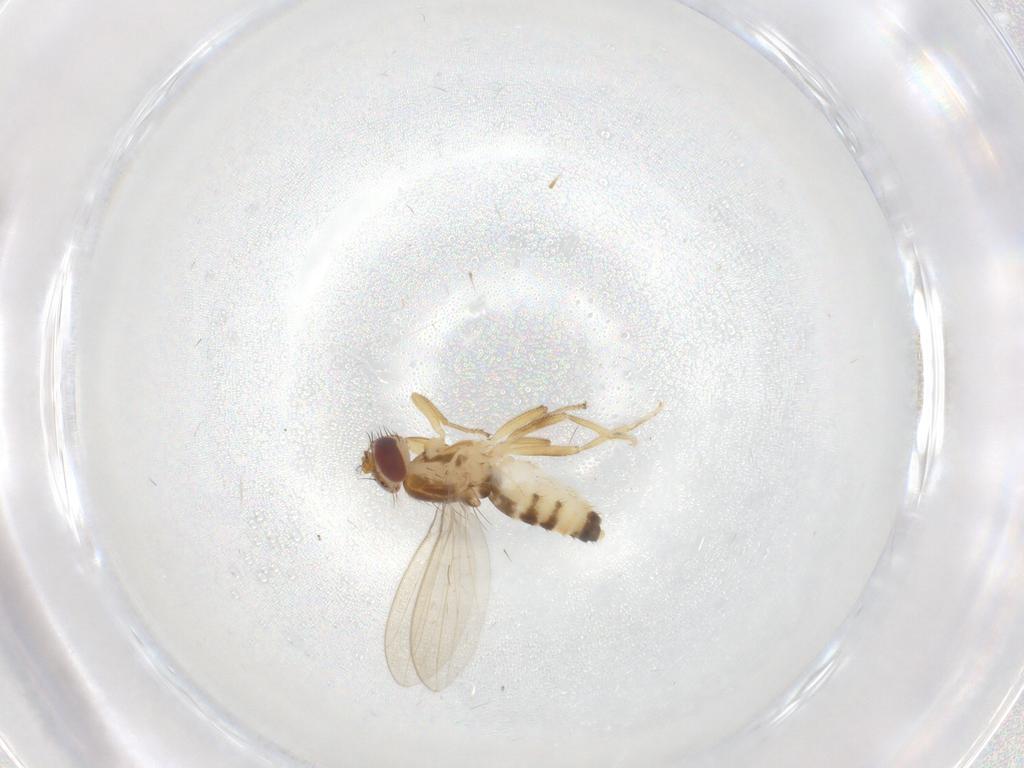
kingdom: Animalia
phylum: Arthropoda
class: Insecta
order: Diptera
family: Periscelididae
